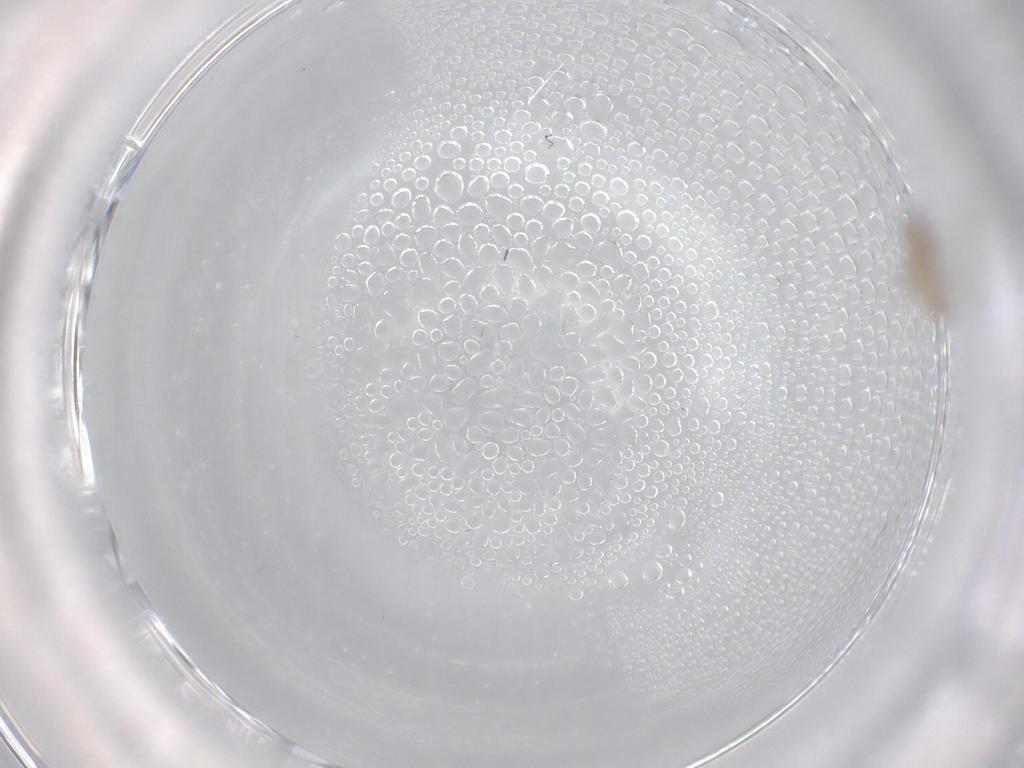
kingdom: Animalia
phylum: Arthropoda
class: Insecta
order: Diptera
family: Cecidomyiidae
